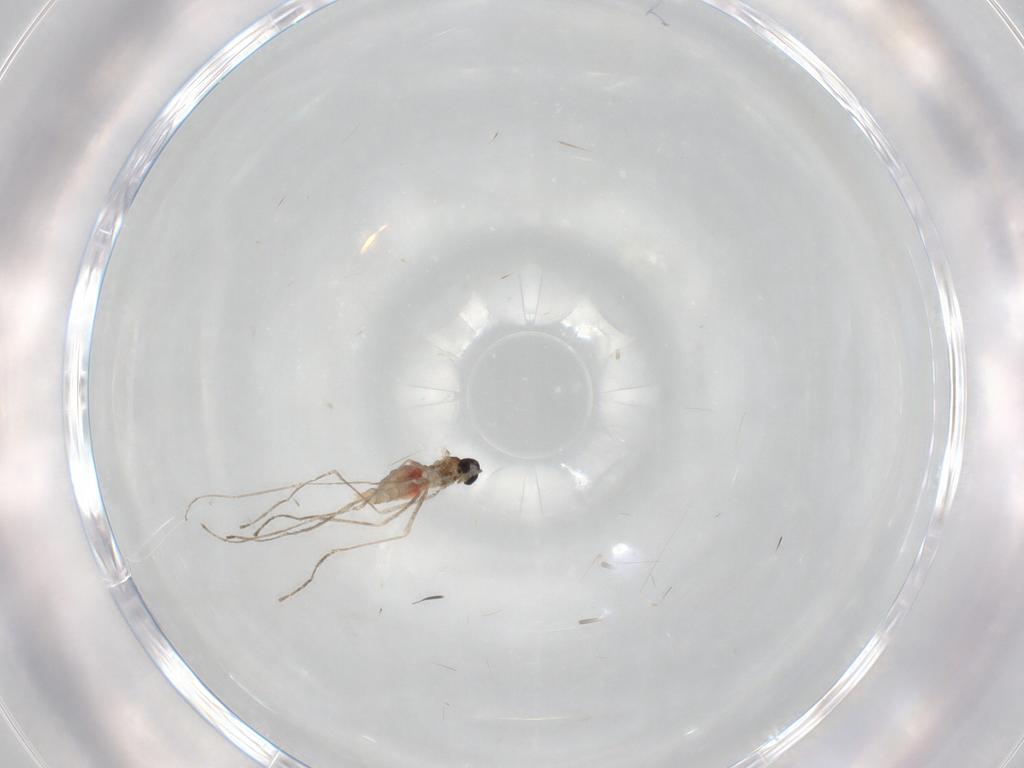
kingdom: Animalia
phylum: Arthropoda
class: Insecta
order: Diptera
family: Cecidomyiidae
